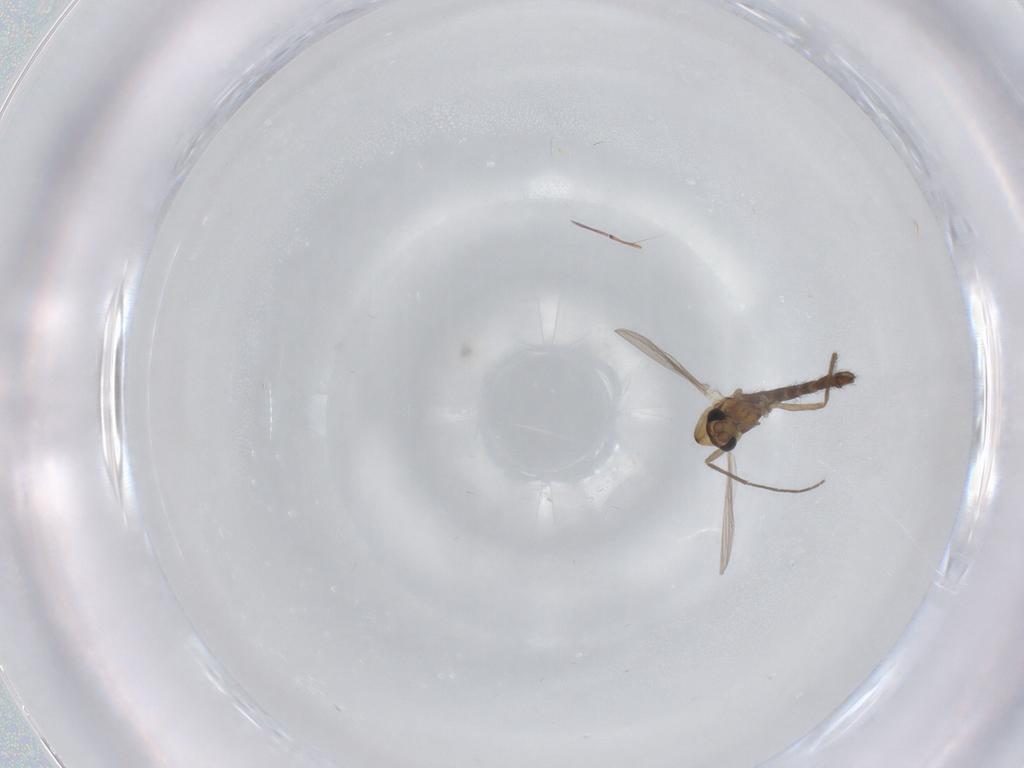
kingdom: Animalia
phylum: Arthropoda
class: Insecta
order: Diptera
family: Chironomidae
